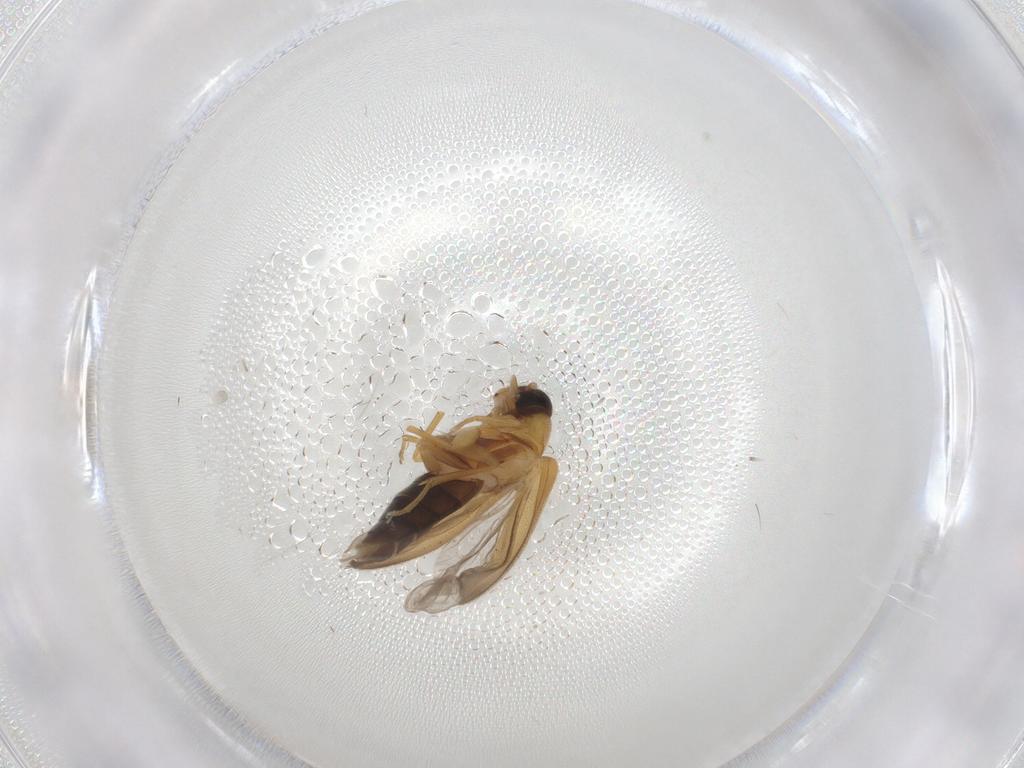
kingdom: Animalia
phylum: Arthropoda
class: Insecta
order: Coleoptera
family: Scraptiidae
